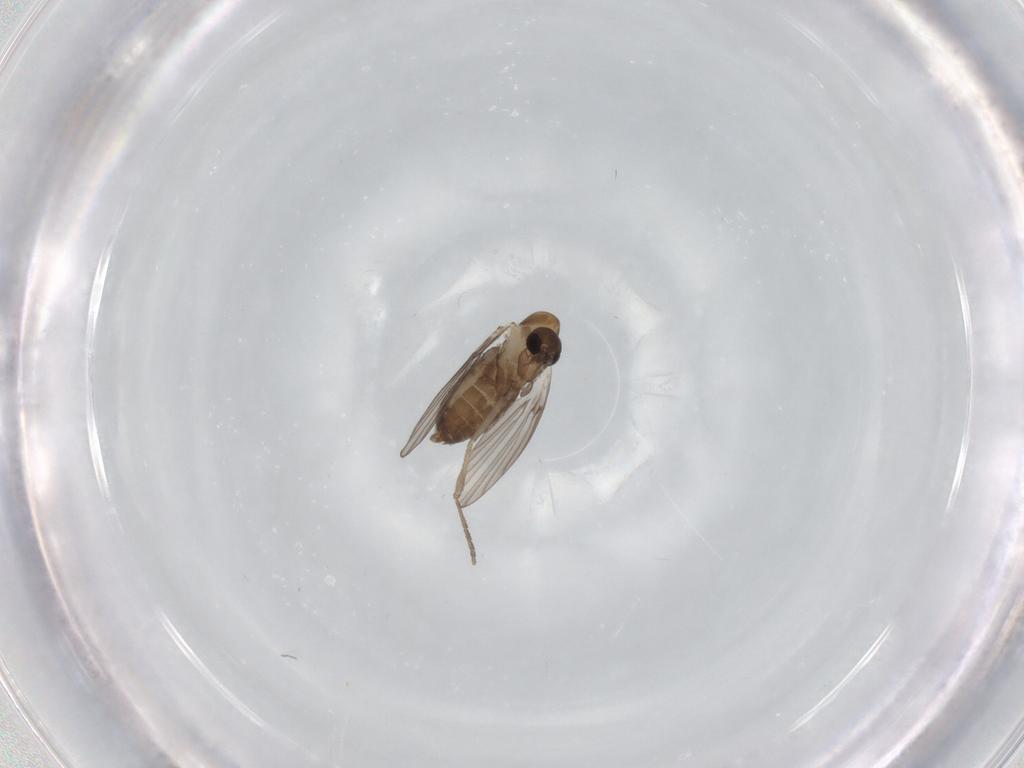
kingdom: Animalia
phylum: Arthropoda
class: Insecta
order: Diptera
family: Psychodidae
